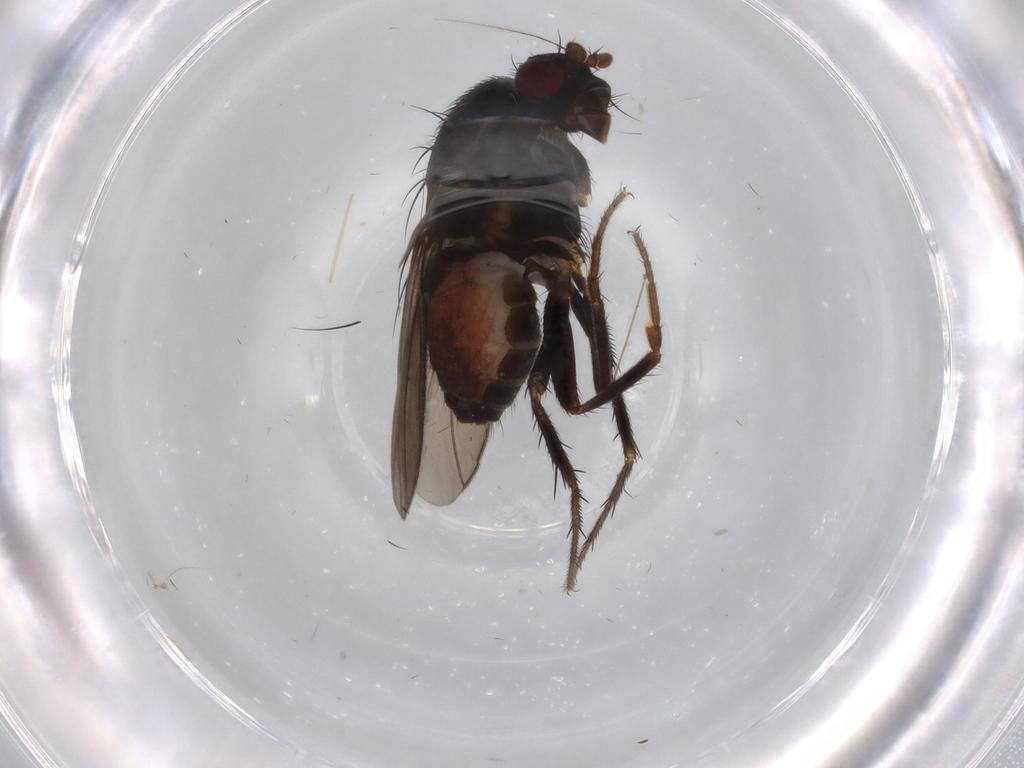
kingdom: Animalia
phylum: Arthropoda
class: Insecta
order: Diptera
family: Sphaeroceridae
